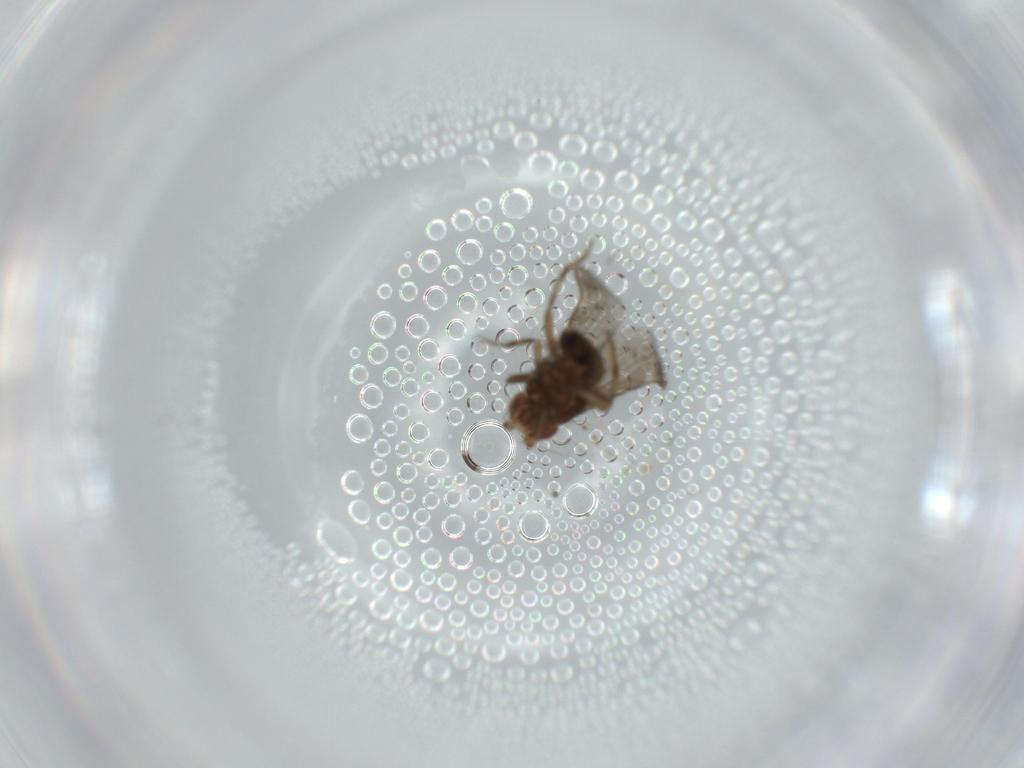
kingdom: Animalia
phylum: Arthropoda
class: Insecta
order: Diptera
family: Sphaeroceridae
